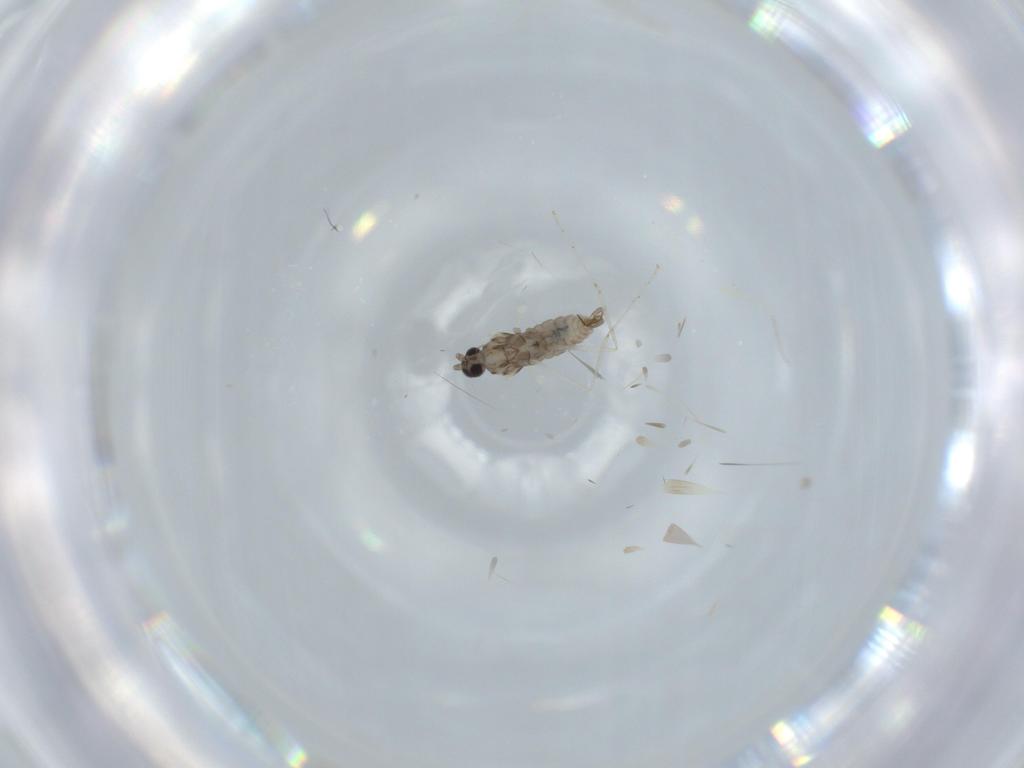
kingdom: Animalia
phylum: Arthropoda
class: Insecta
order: Diptera
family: Cecidomyiidae
